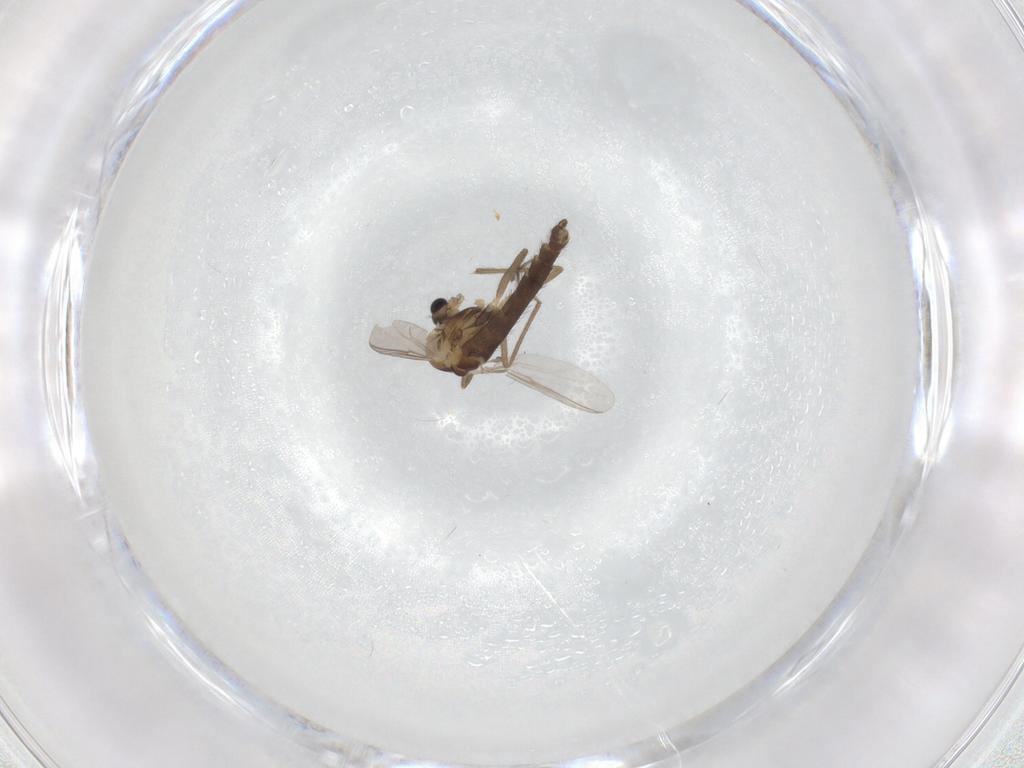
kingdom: Animalia
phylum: Arthropoda
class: Insecta
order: Diptera
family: Chironomidae
